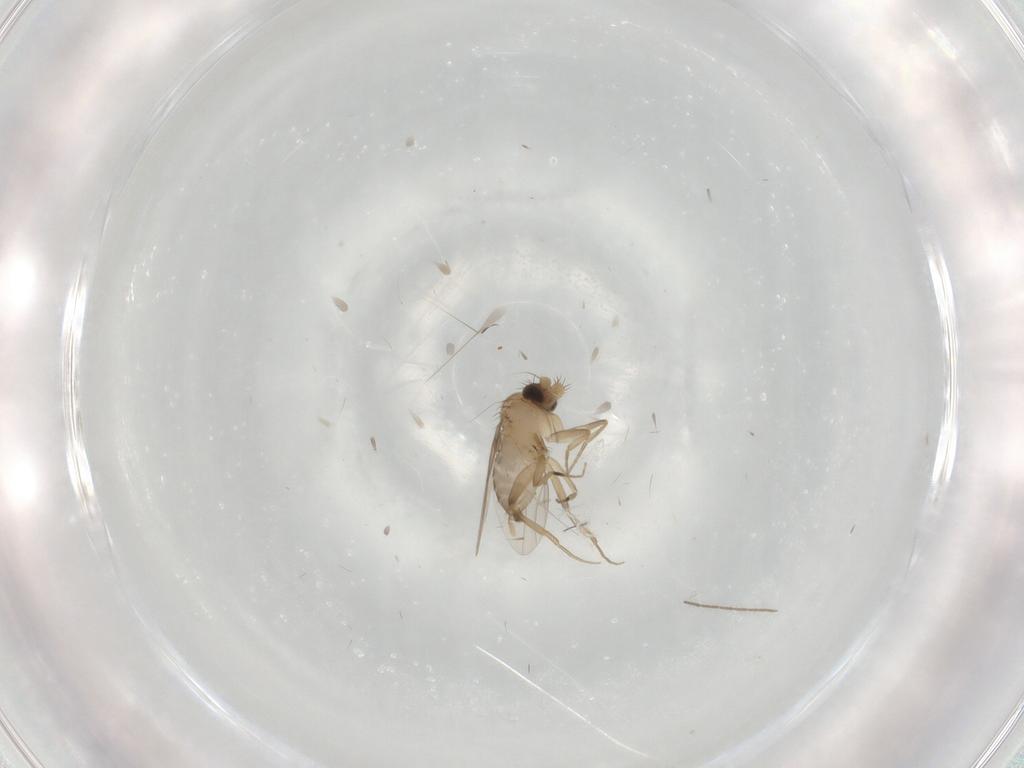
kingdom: Animalia
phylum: Arthropoda
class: Insecta
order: Diptera
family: Phoridae
